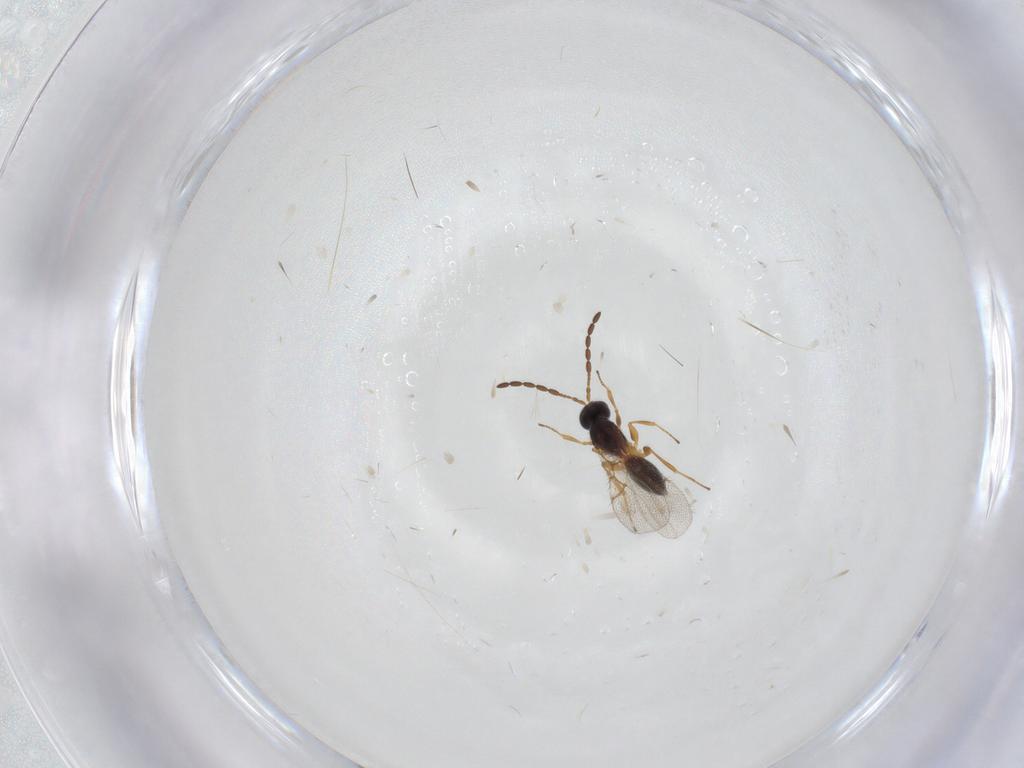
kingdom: Animalia
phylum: Arthropoda
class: Insecta
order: Hymenoptera
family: Figitidae
